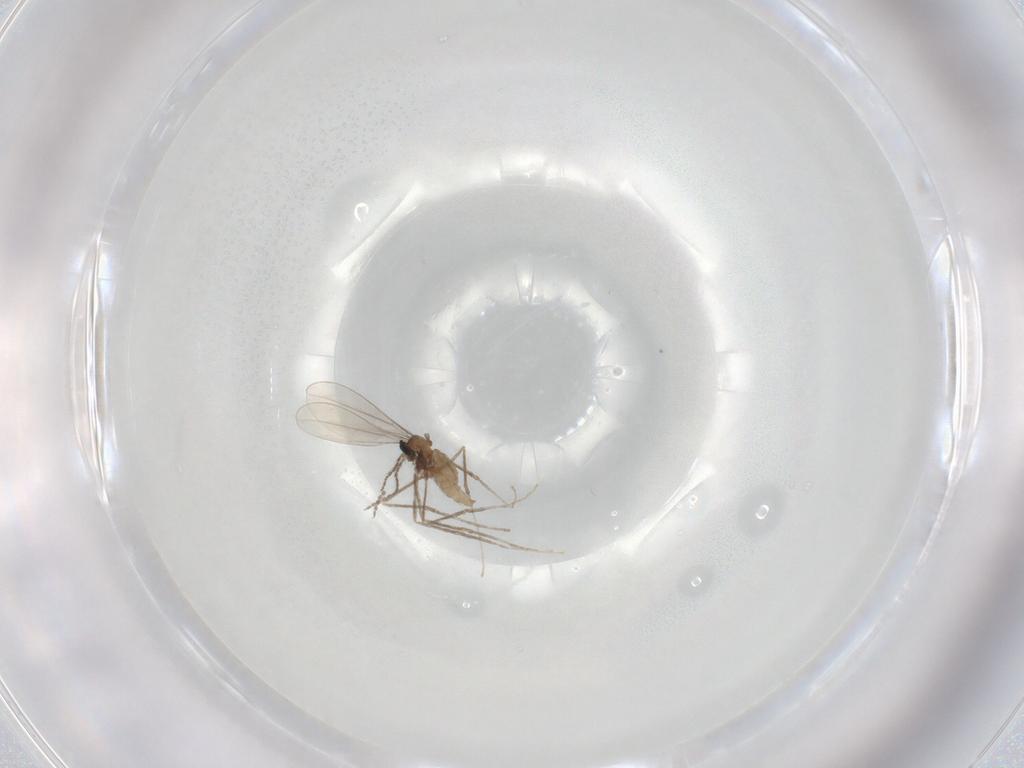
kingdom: Animalia
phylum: Arthropoda
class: Insecta
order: Diptera
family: Cecidomyiidae
